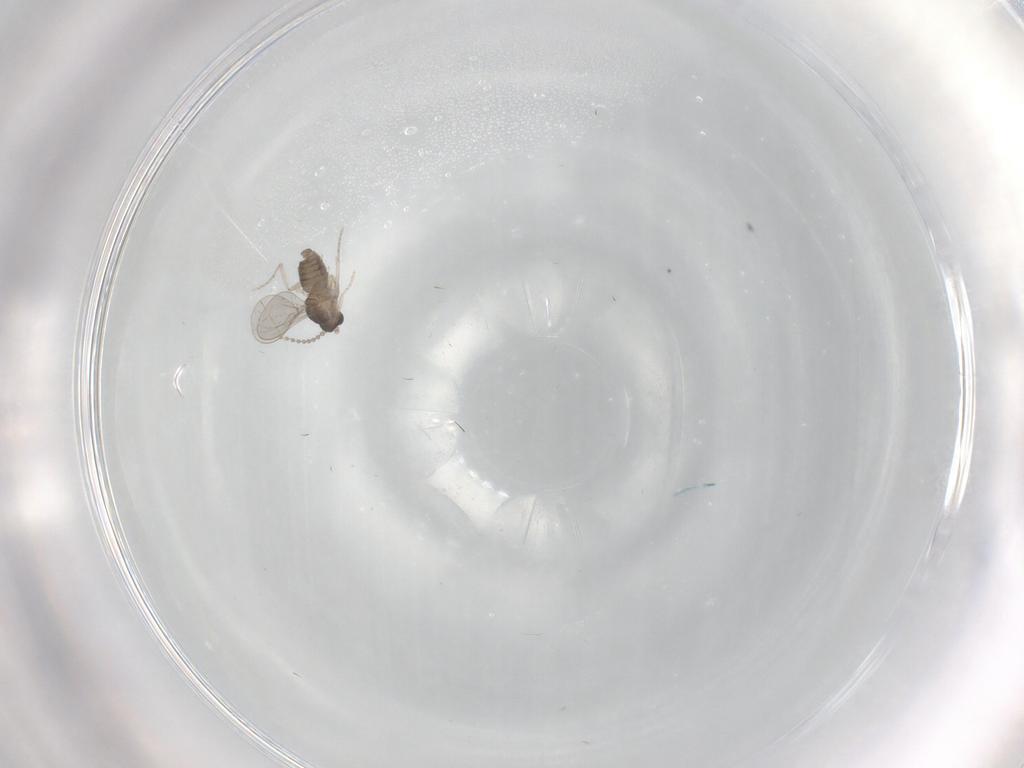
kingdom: Animalia
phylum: Arthropoda
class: Insecta
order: Diptera
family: Cecidomyiidae
